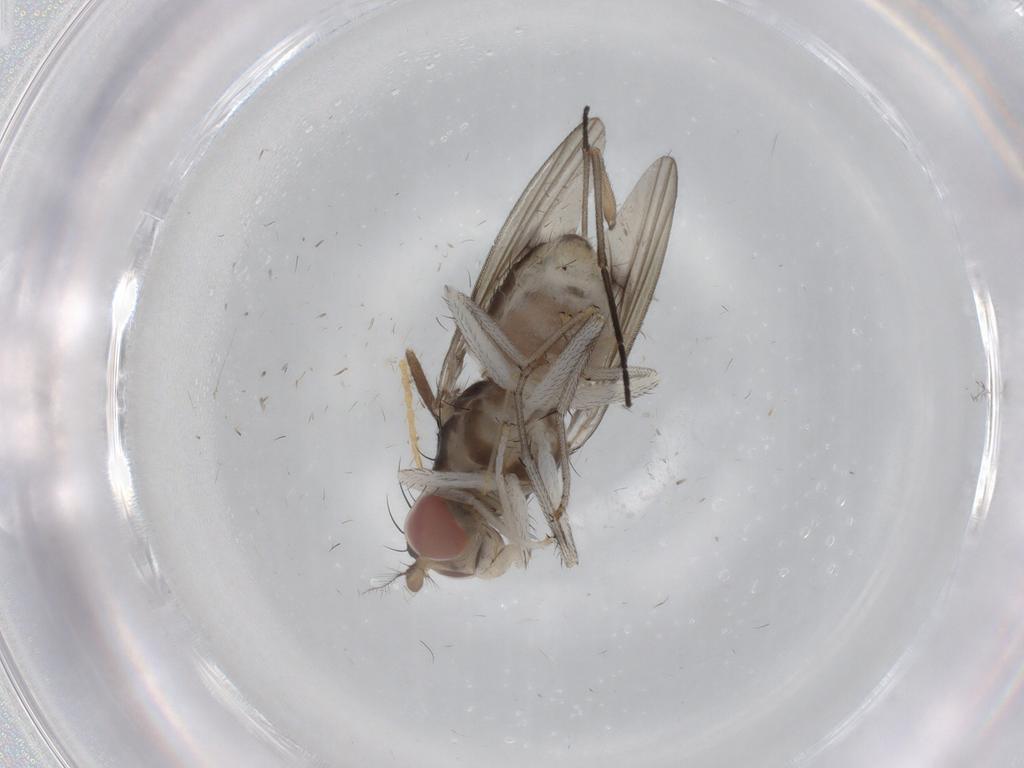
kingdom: Animalia
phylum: Arthropoda
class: Insecta
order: Diptera
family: Cecidomyiidae
